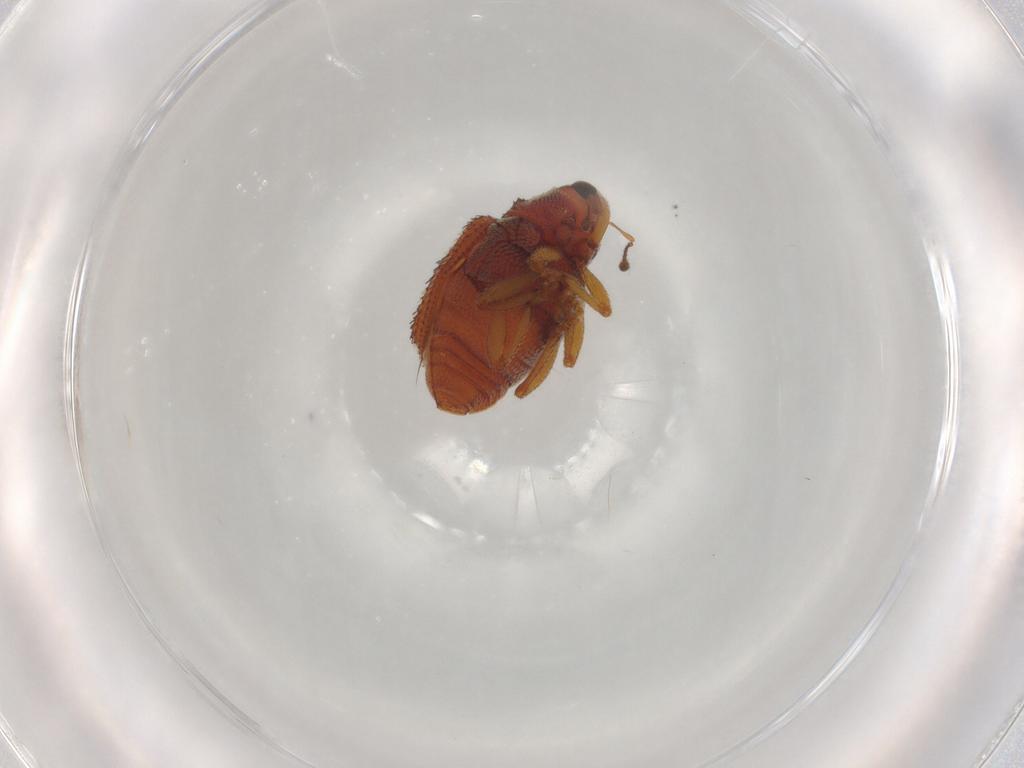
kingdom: Animalia
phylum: Arthropoda
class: Insecta
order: Coleoptera
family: Curculionidae
